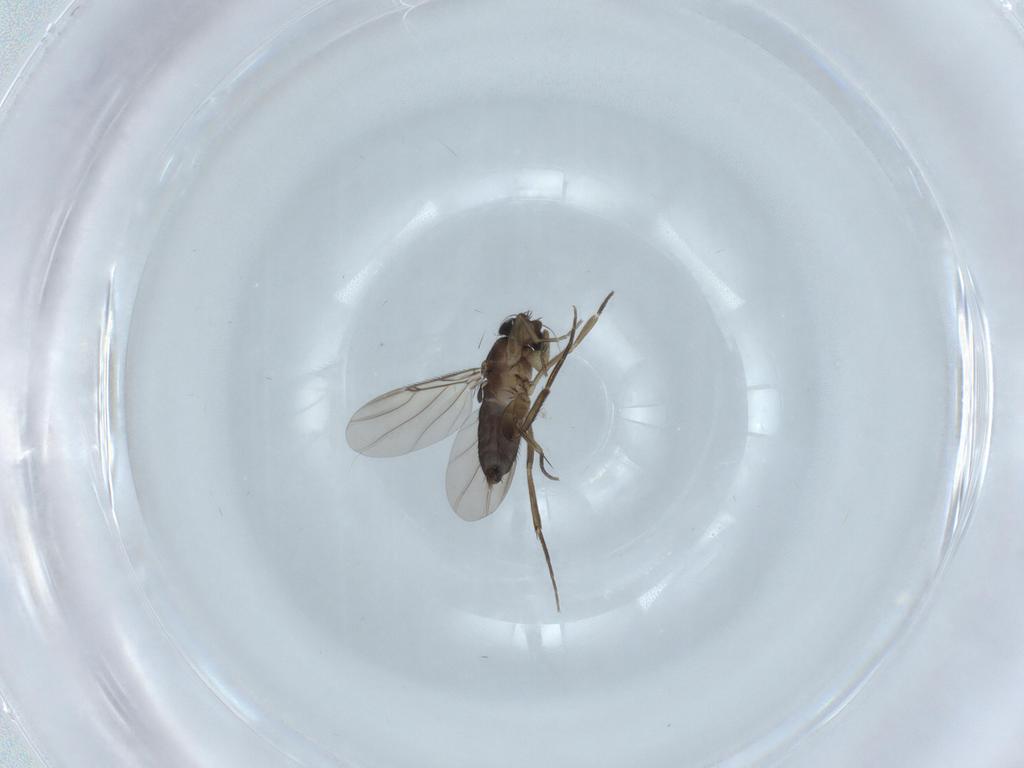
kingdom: Animalia
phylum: Arthropoda
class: Insecta
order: Diptera
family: Phoridae
